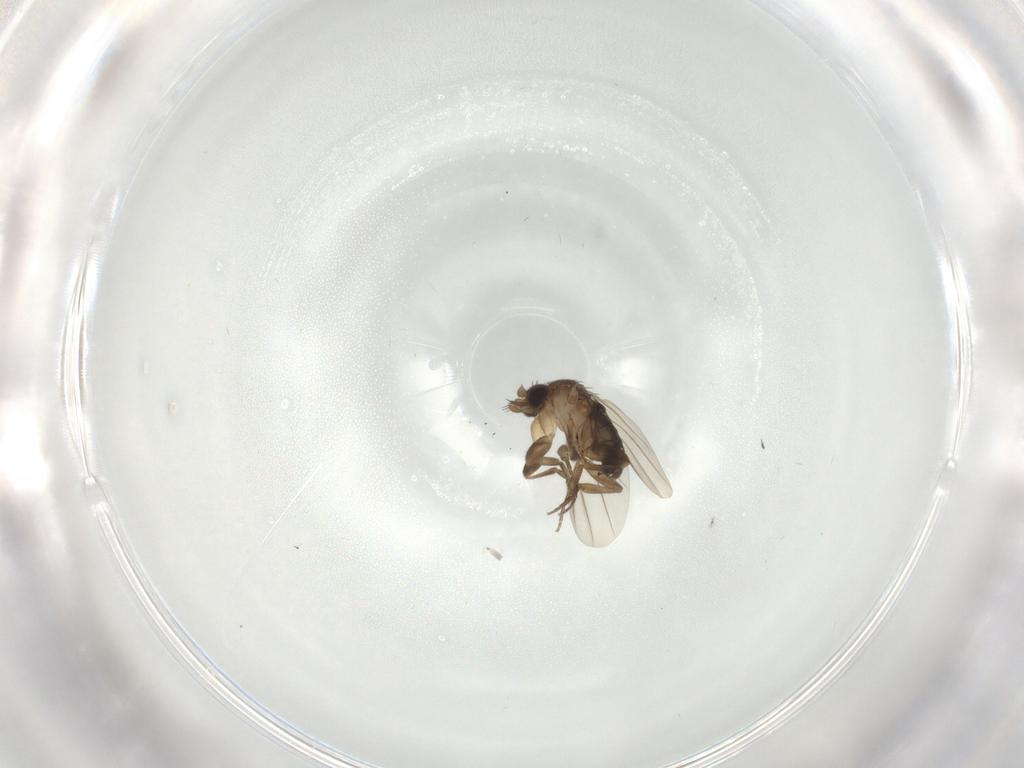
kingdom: Animalia
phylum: Arthropoda
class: Insecta
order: Diptera
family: Phoridae
